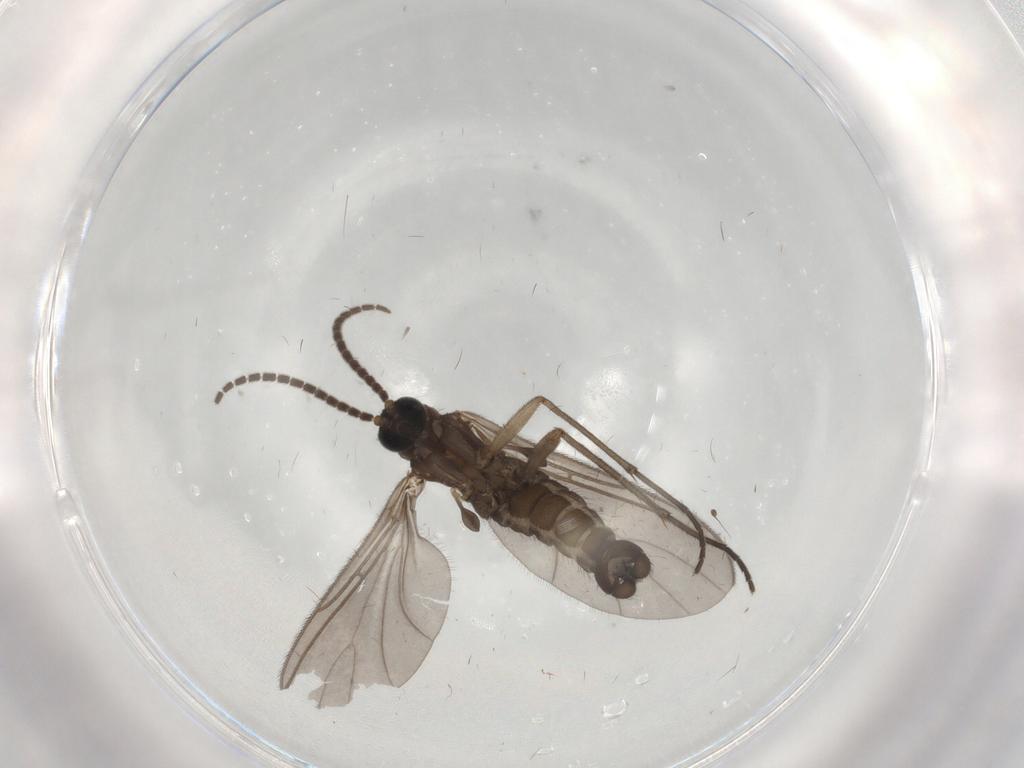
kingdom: Animalia
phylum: Arthropoda
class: Insecta
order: Diptera
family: Sciaridae
